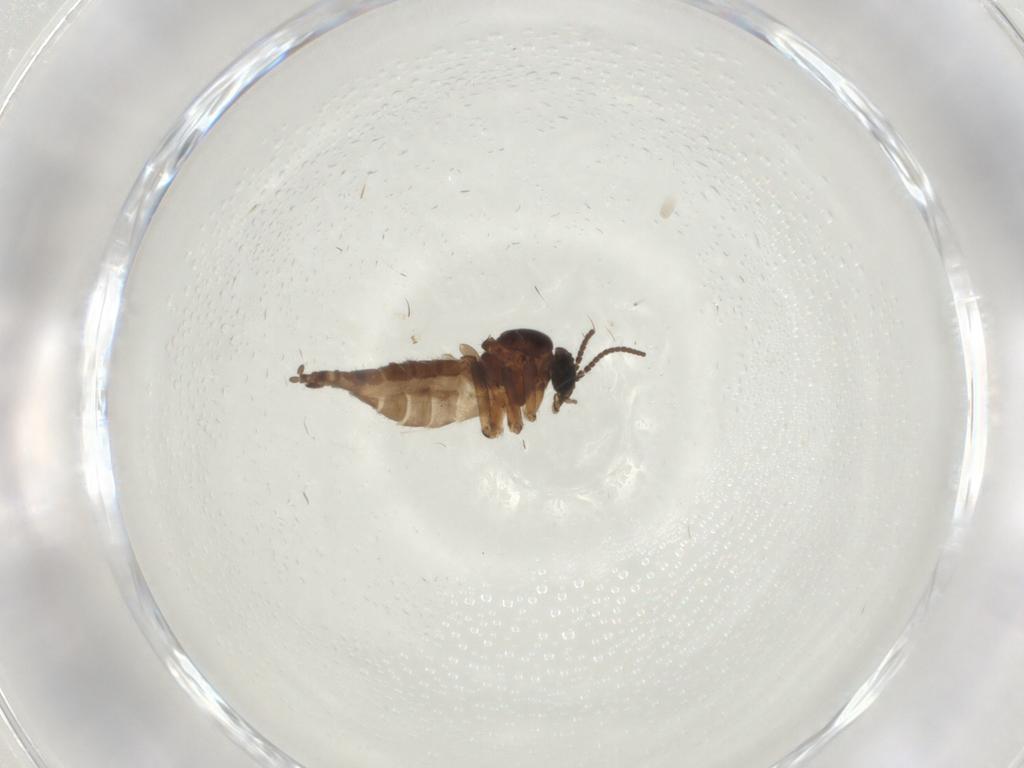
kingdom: Animalia
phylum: Arthropoda
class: Insecta
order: Diptera
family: Sciaridae
